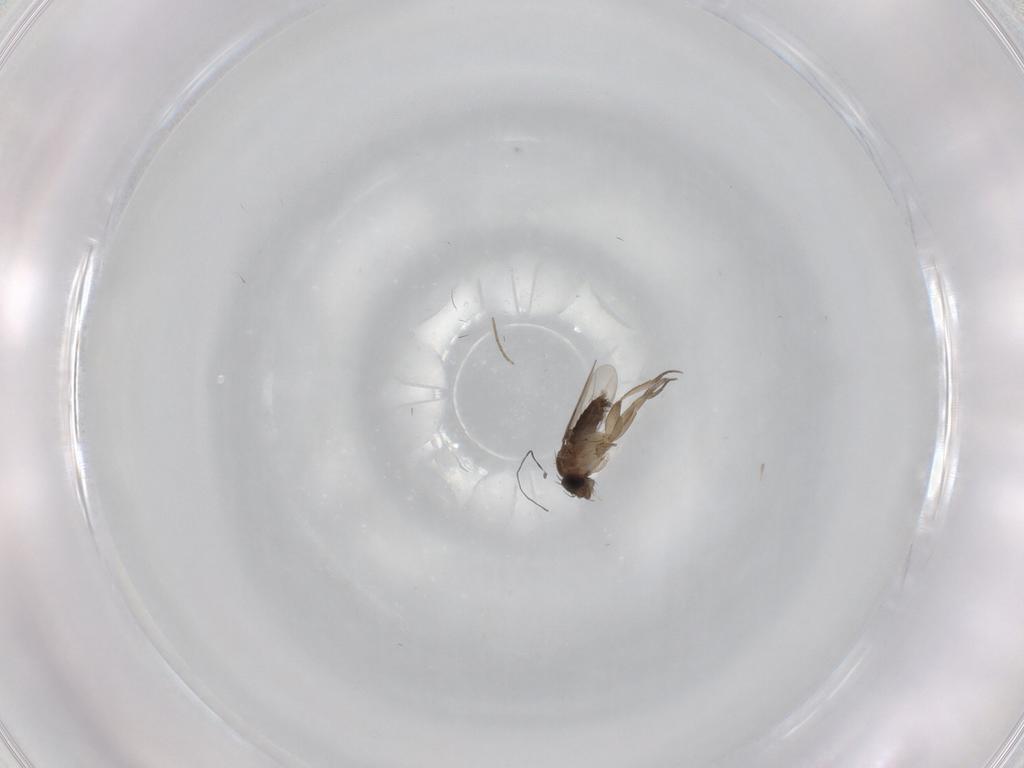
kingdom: Animalia
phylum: Arthropoda
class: Insecta
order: Diptera
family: Phoridae
